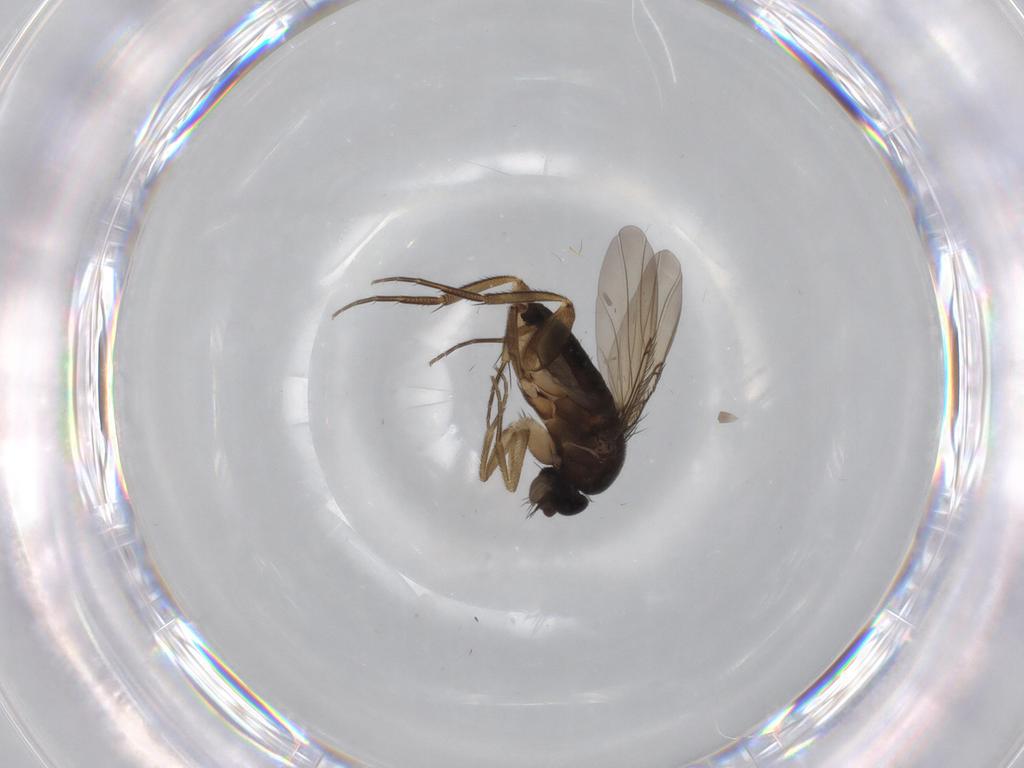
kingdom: Animalia
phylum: Arthropoda
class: Insecta
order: Diptera
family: Phoridae
